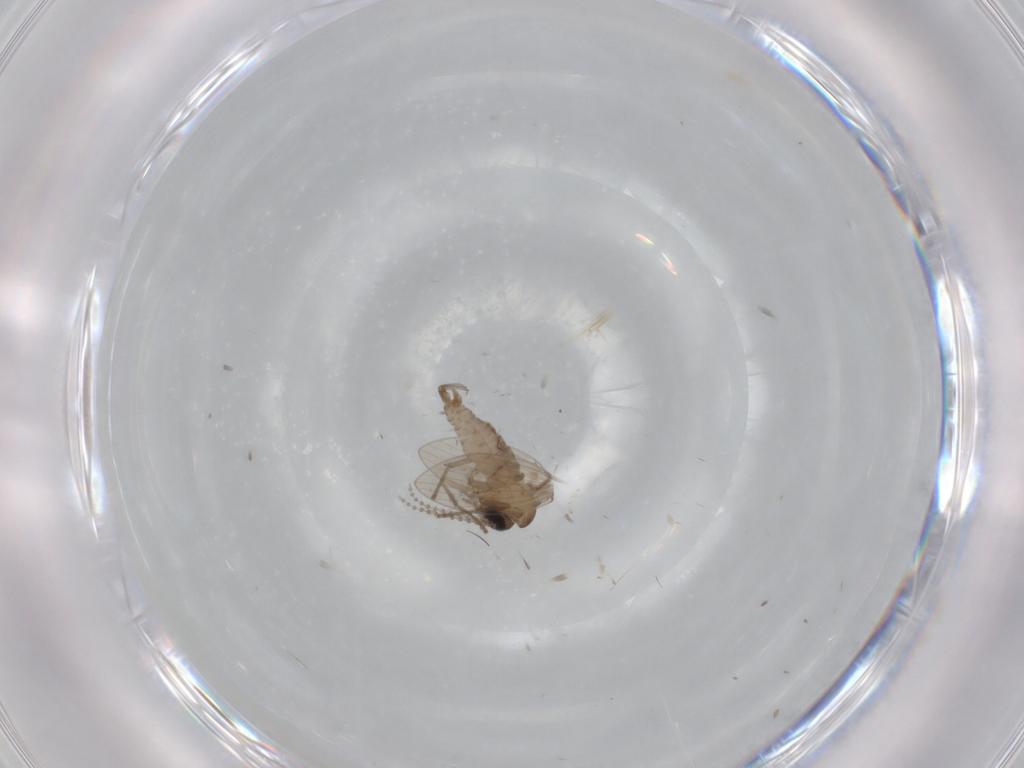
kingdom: Animalia
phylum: Arthropoda
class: Insecta
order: Diptera
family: Psychodidae
